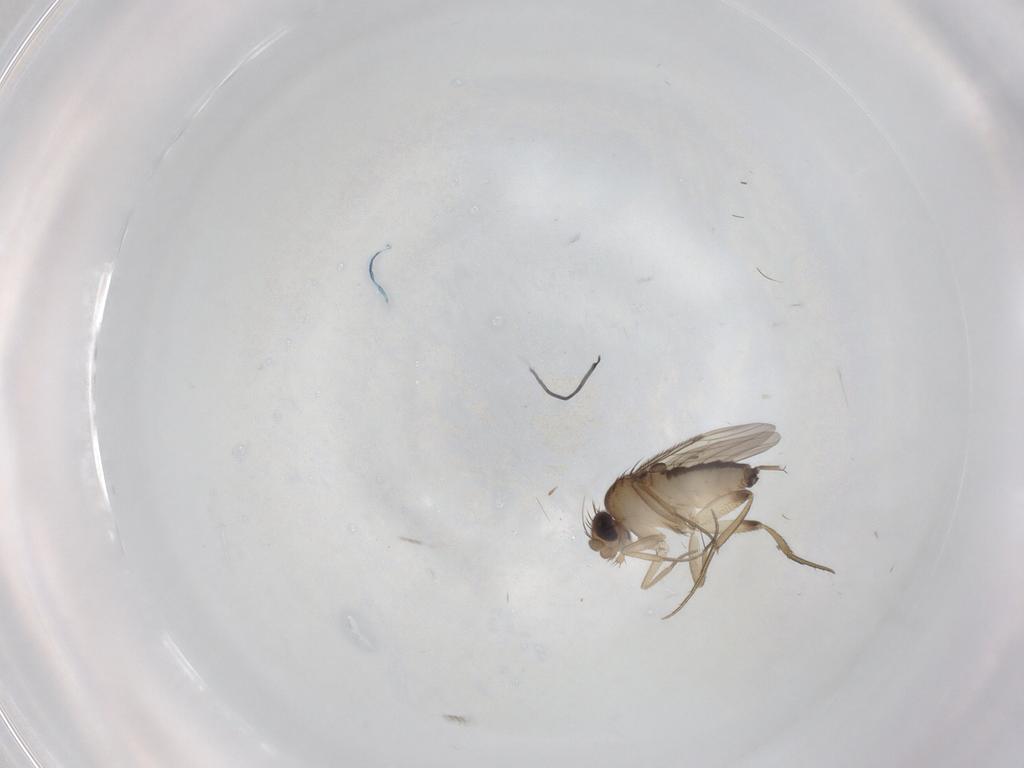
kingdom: Animalia
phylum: Arthropoda
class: Insecta
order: Diptera
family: Phoridae
